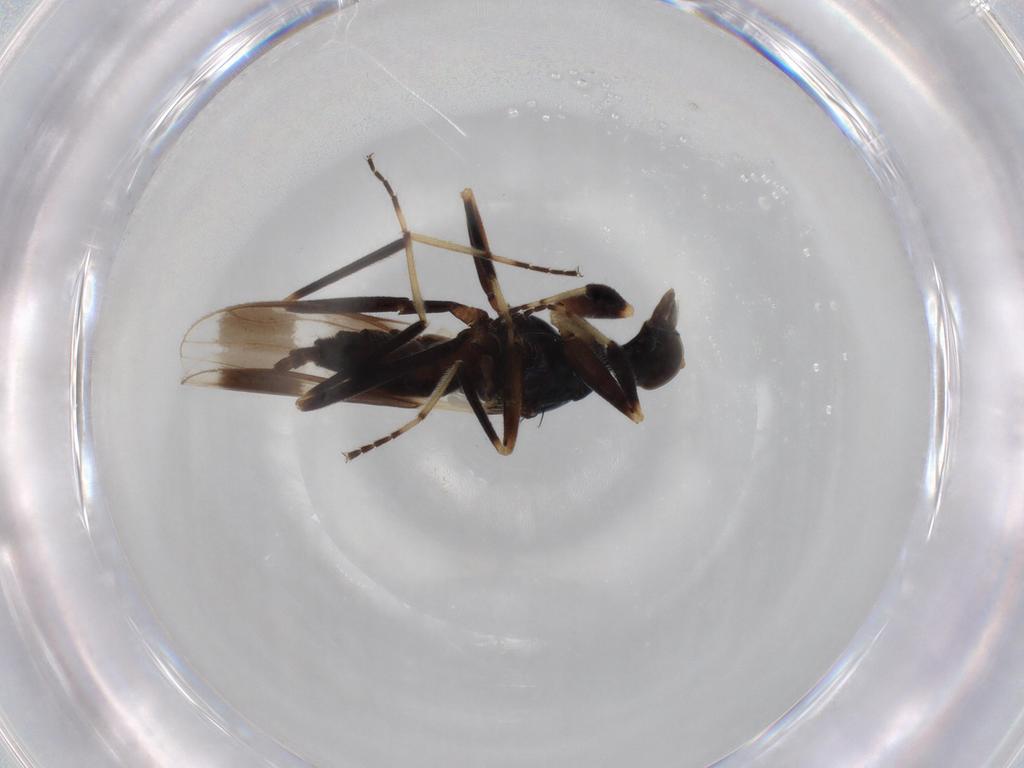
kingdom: Animalia
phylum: Arthropoda
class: Insecta
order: Diptera
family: Hybotidae
